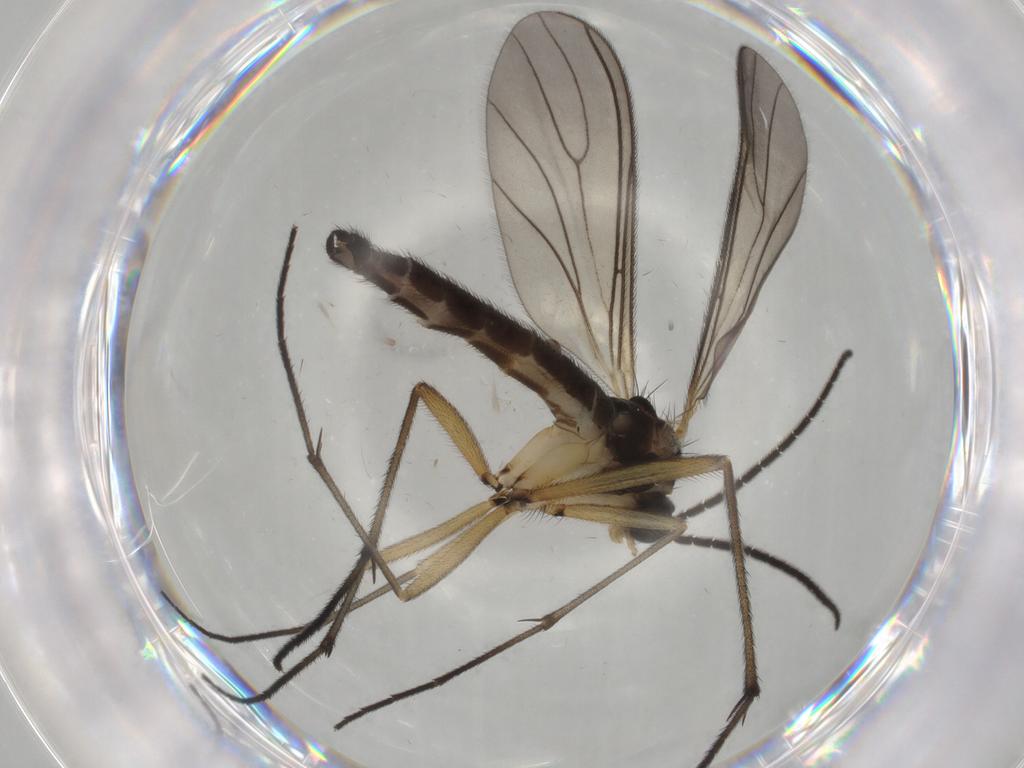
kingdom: Animalia
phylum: Arthropoda
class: Insecta
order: Diptera
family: Sciaridae
